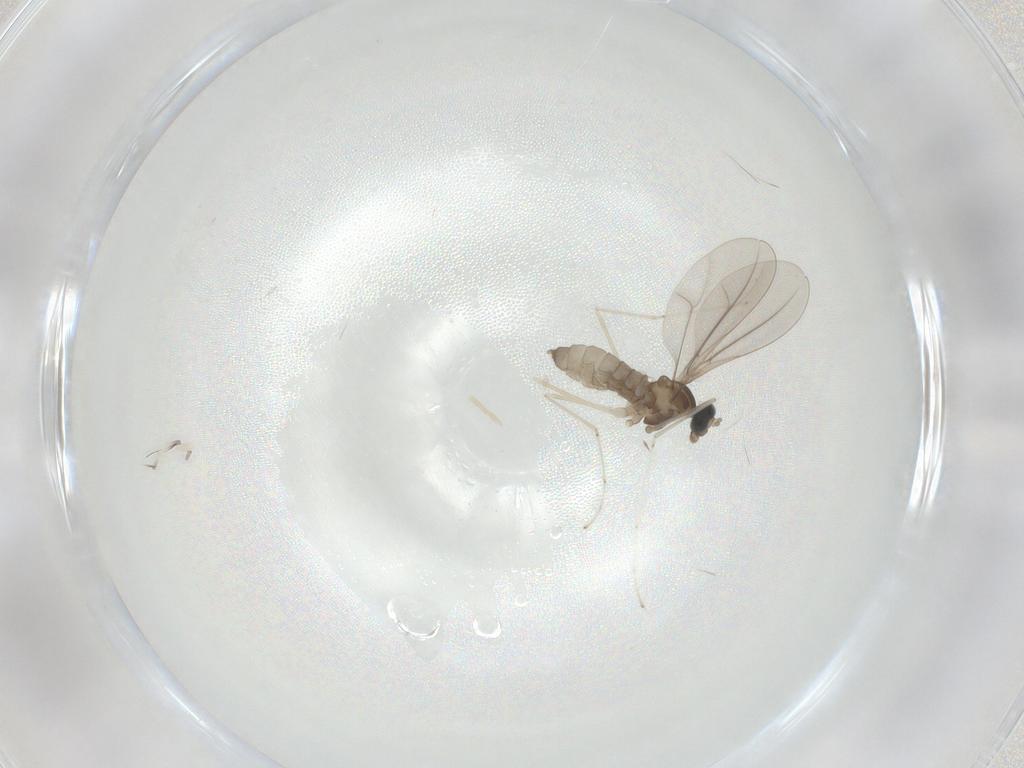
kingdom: Animalia
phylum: Arthropoda
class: Insecta
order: Diptera
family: Cecidomyiidae
